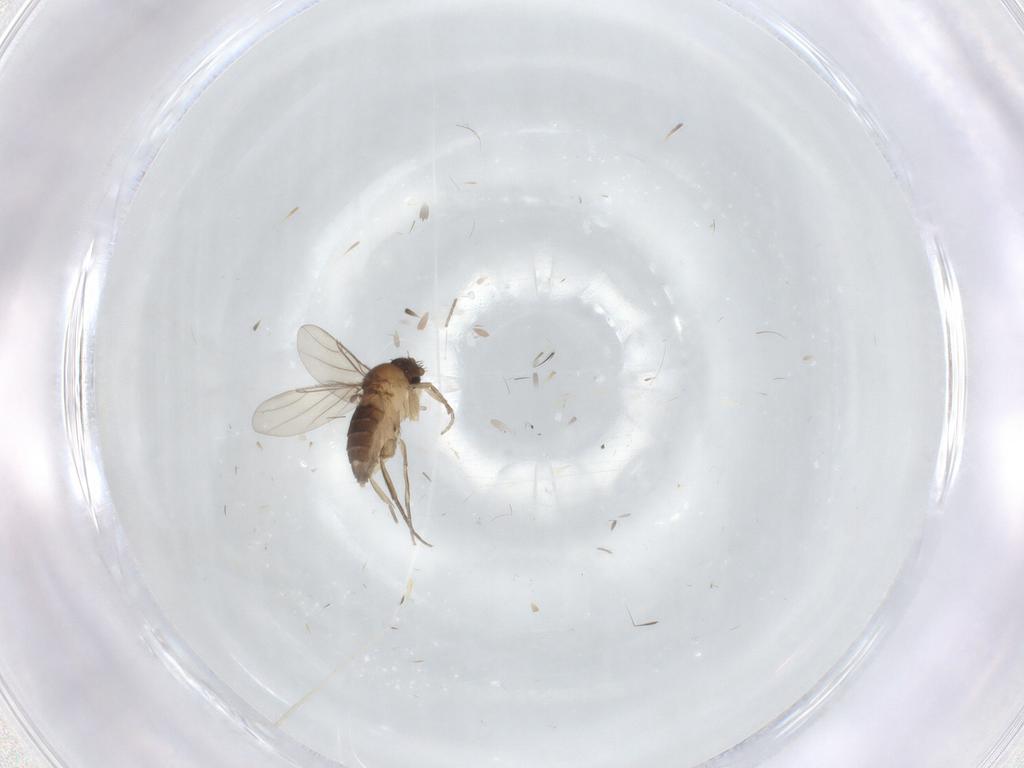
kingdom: Animalia
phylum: Arthropoda
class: Insecta
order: Diptera
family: Phoridae
